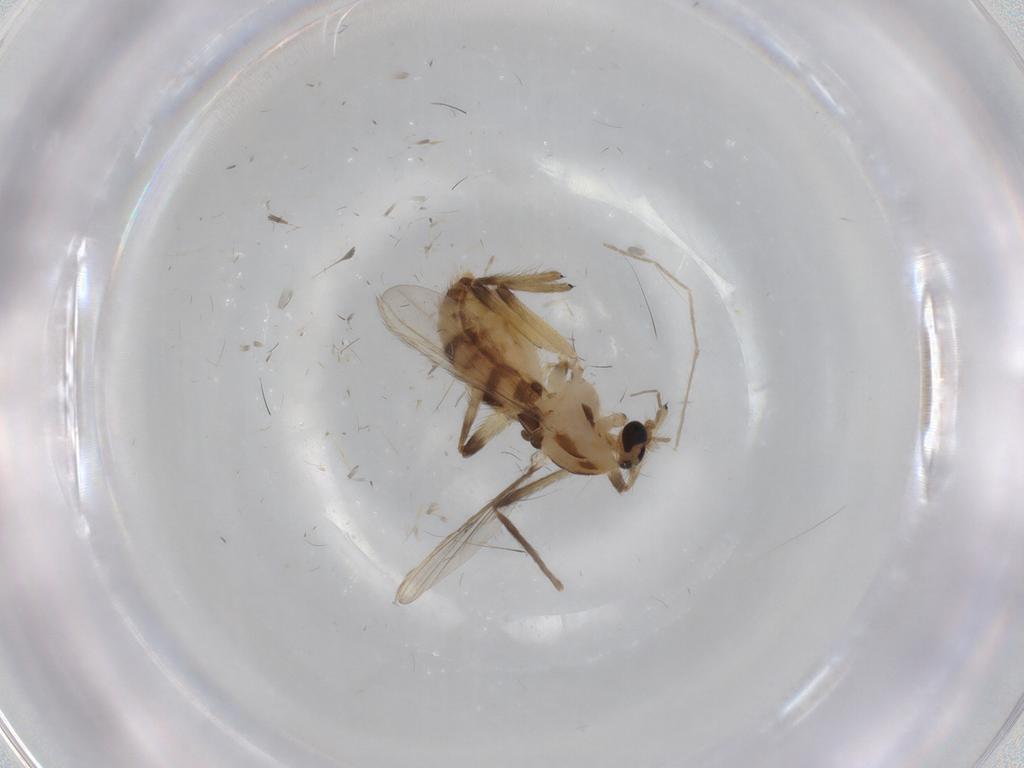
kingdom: Animalia
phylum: Arthropoda
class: Insecta
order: Diptera
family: Chironomidae
